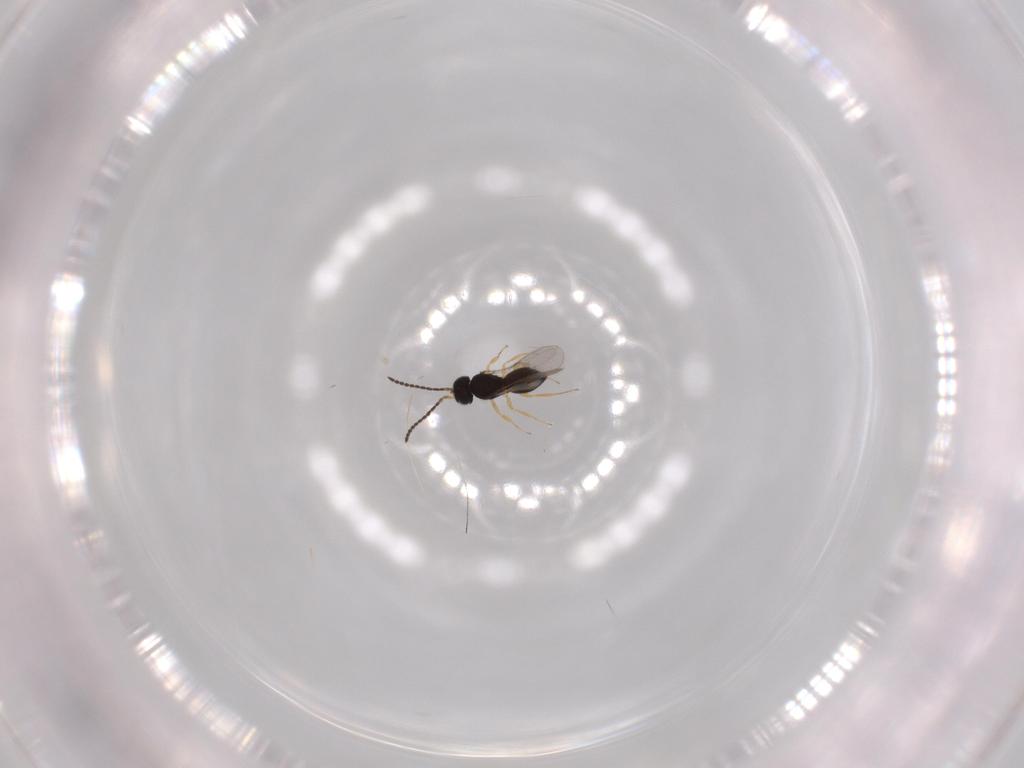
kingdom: Animalia
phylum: Arthropoda
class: Insecta
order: Hymenoptera
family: Scelionidae
